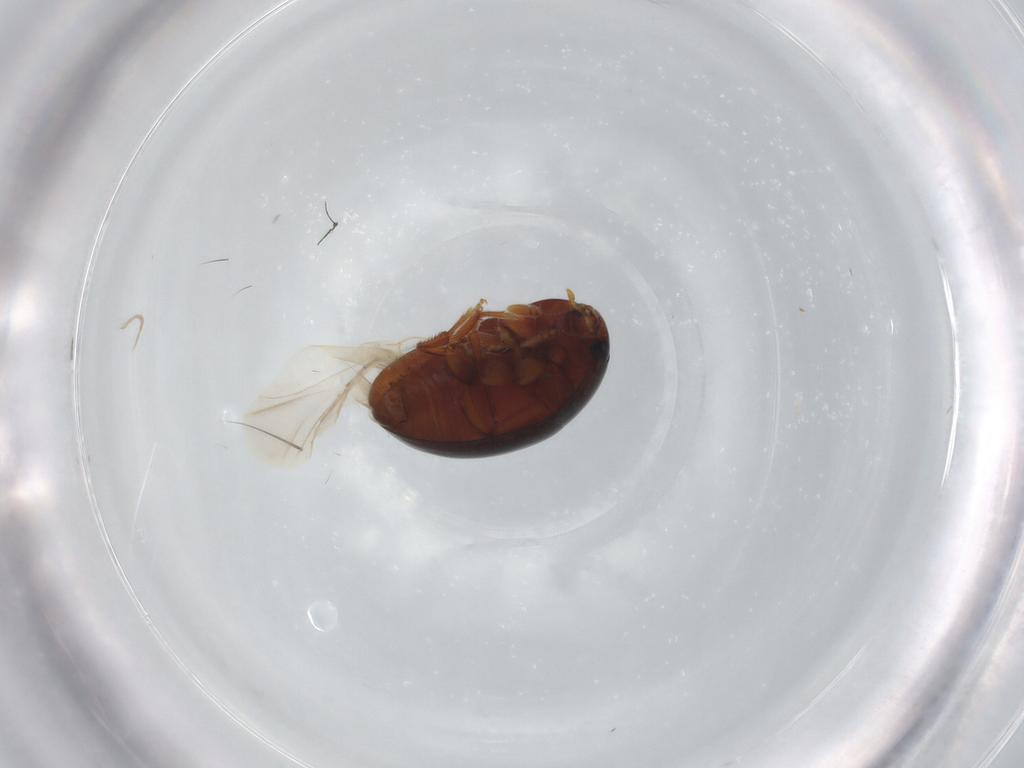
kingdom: Animalia
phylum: Arthropoda
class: Insecta
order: Coleoptera
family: Phalacridae
